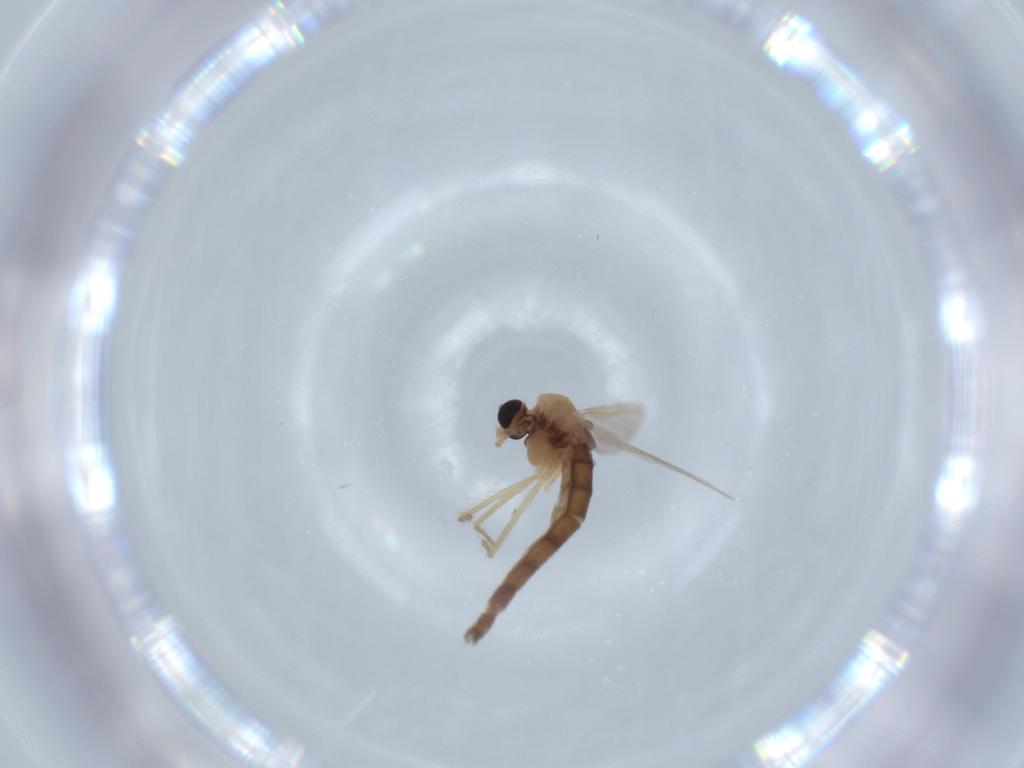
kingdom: Animalia
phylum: Arthropoda
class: Insecta
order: Diptera
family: Chironomidae
